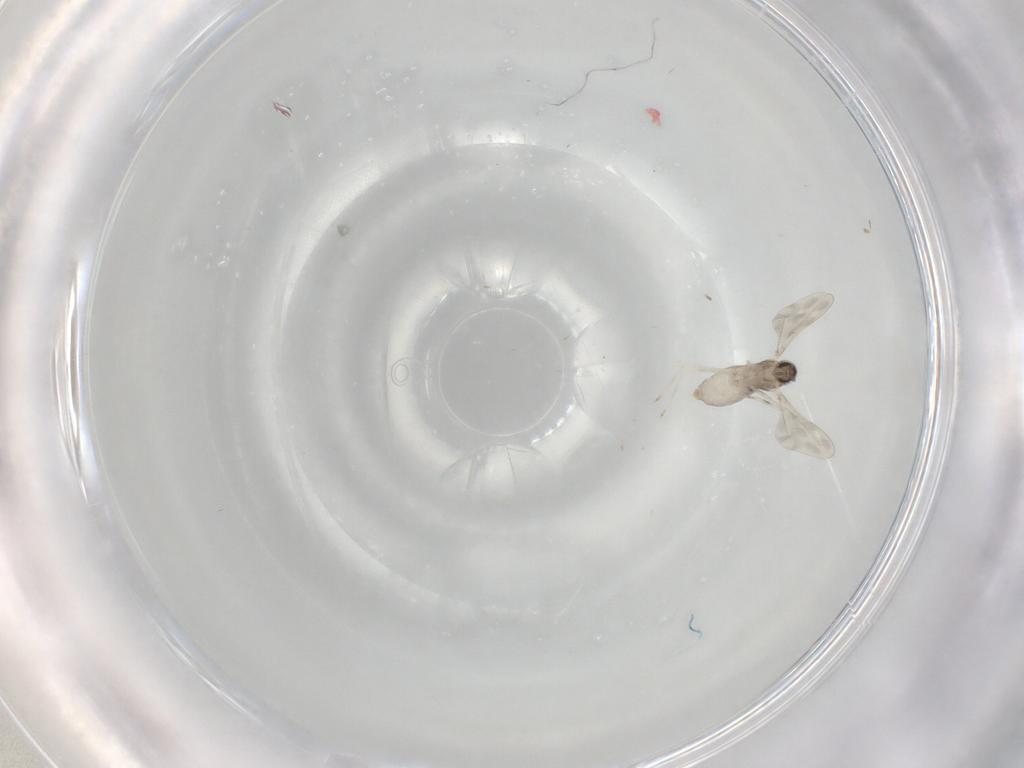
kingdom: Animalia
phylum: Arthropoda
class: Insecta
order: Diptera
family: Cecidomyiidae
